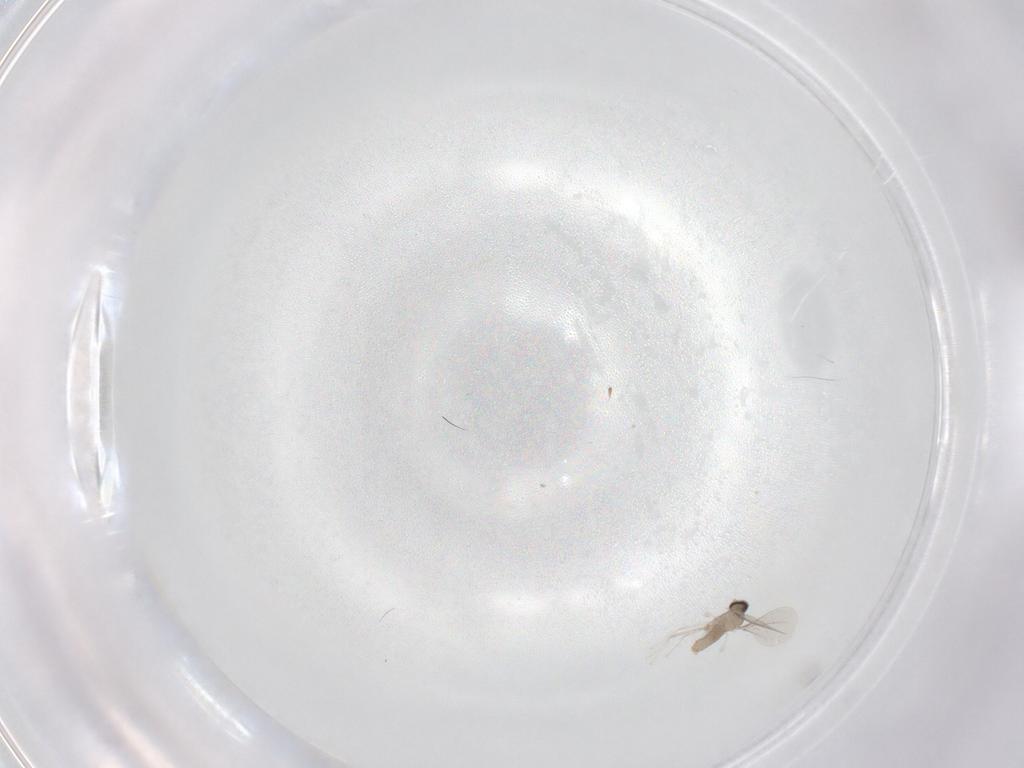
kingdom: Animalia
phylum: Arthropoda
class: Insecta
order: Diptera
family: Cecidomyiidae
